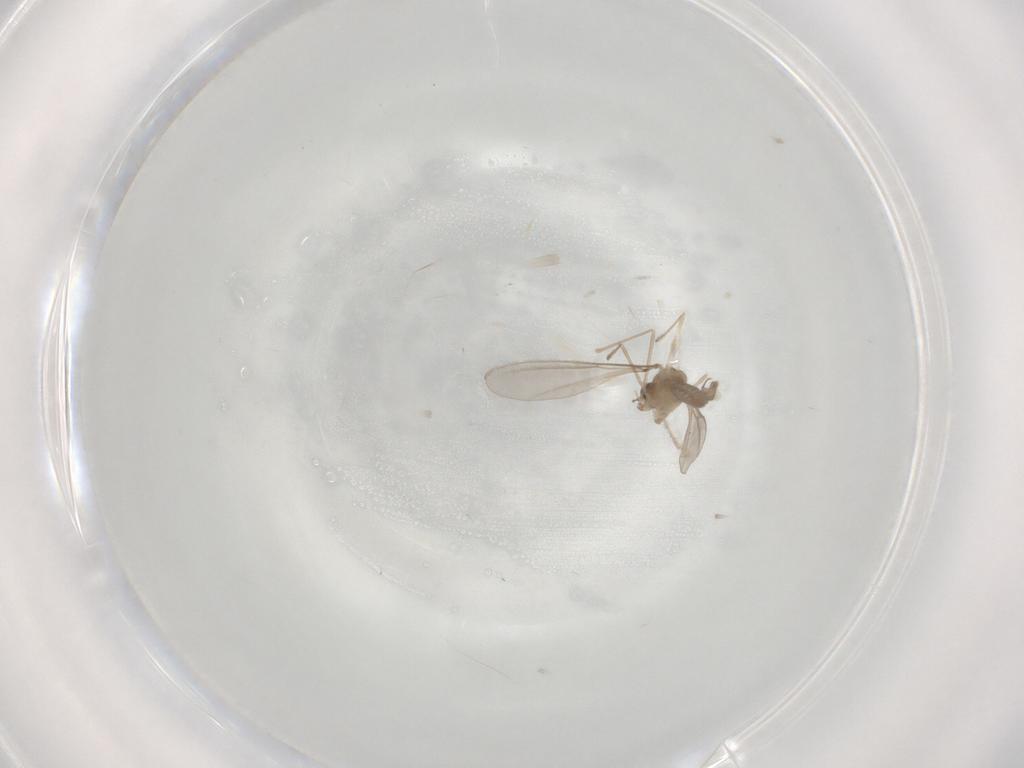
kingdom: Animalia
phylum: Arthropoda
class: Insecta
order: Diptera
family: Cecidomyiidae
